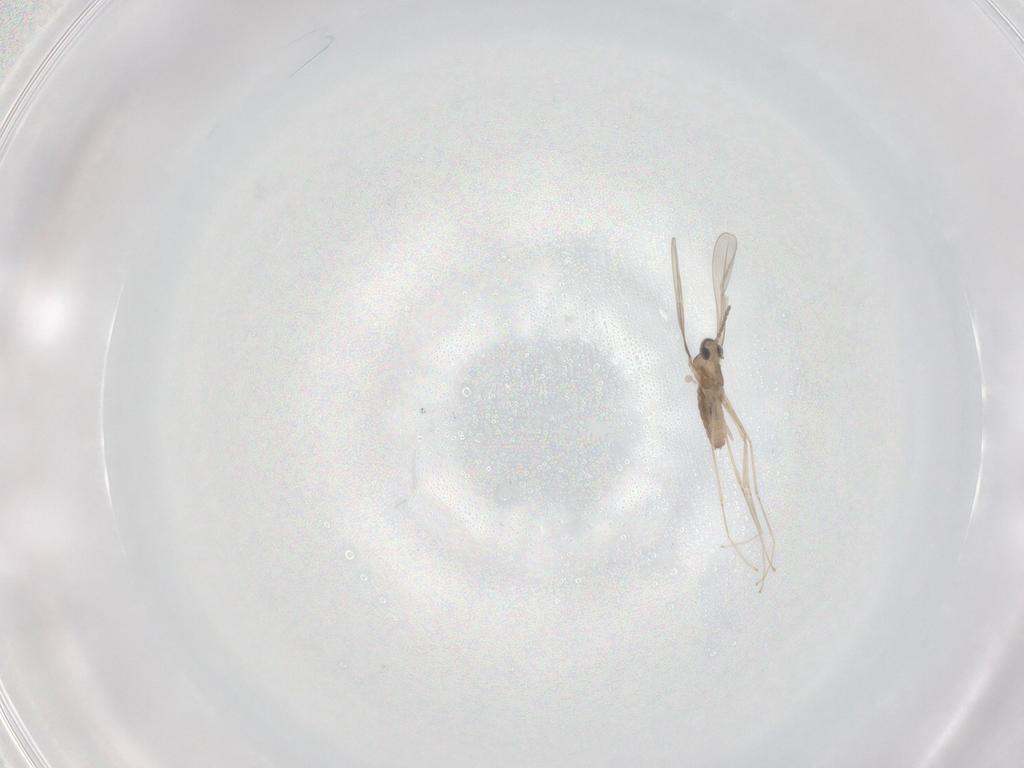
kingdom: Animalia
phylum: Arthropoda
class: Insecta
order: Diptera
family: Cecidomyiidae
